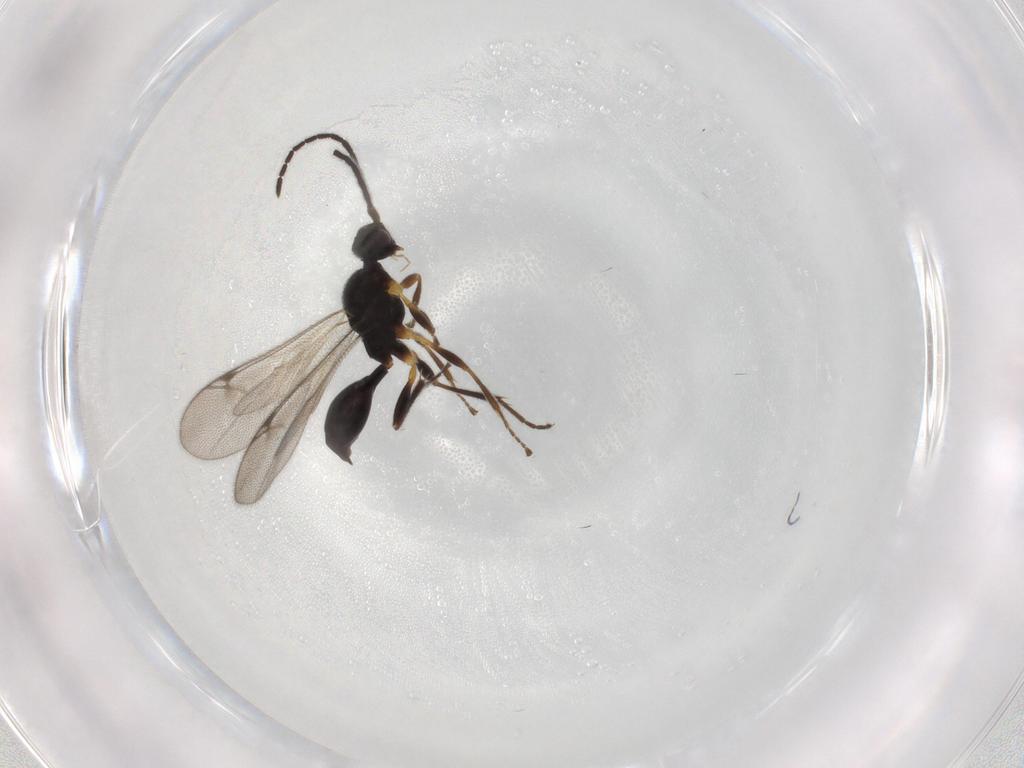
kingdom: Animalia
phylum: Arthropoda
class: Insecta
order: Hymenoptera
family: Proctotrupidae
